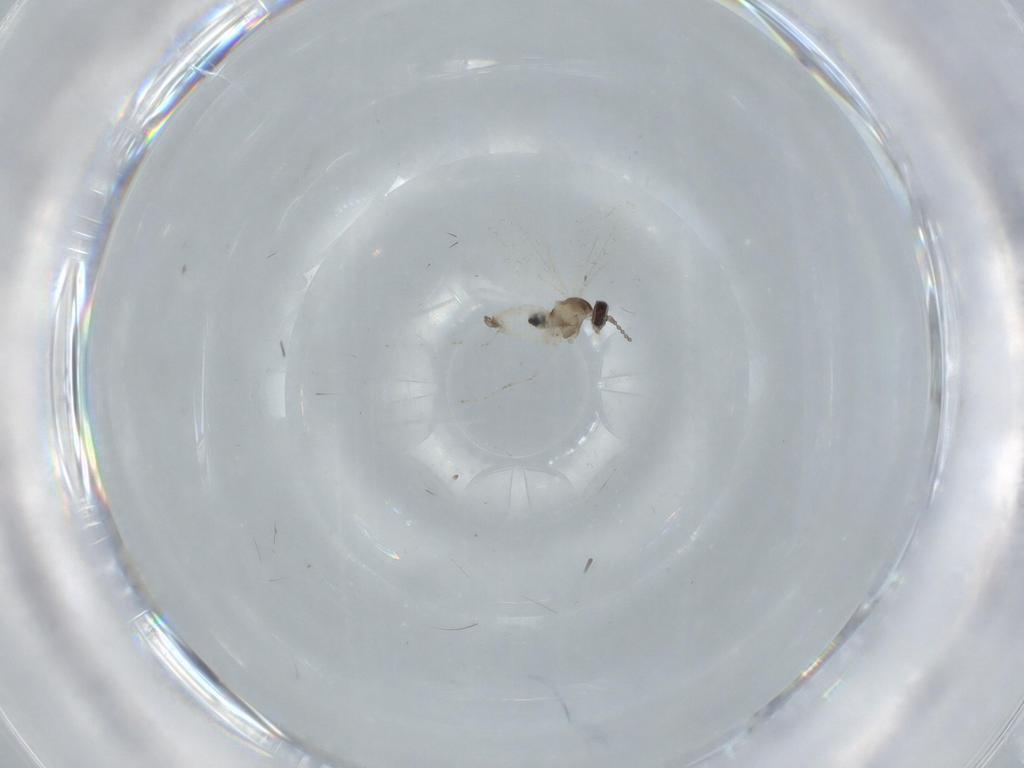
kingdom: Animalia
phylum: Arthropoda
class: Insecta
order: Diptera
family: Cecidomyiidae
